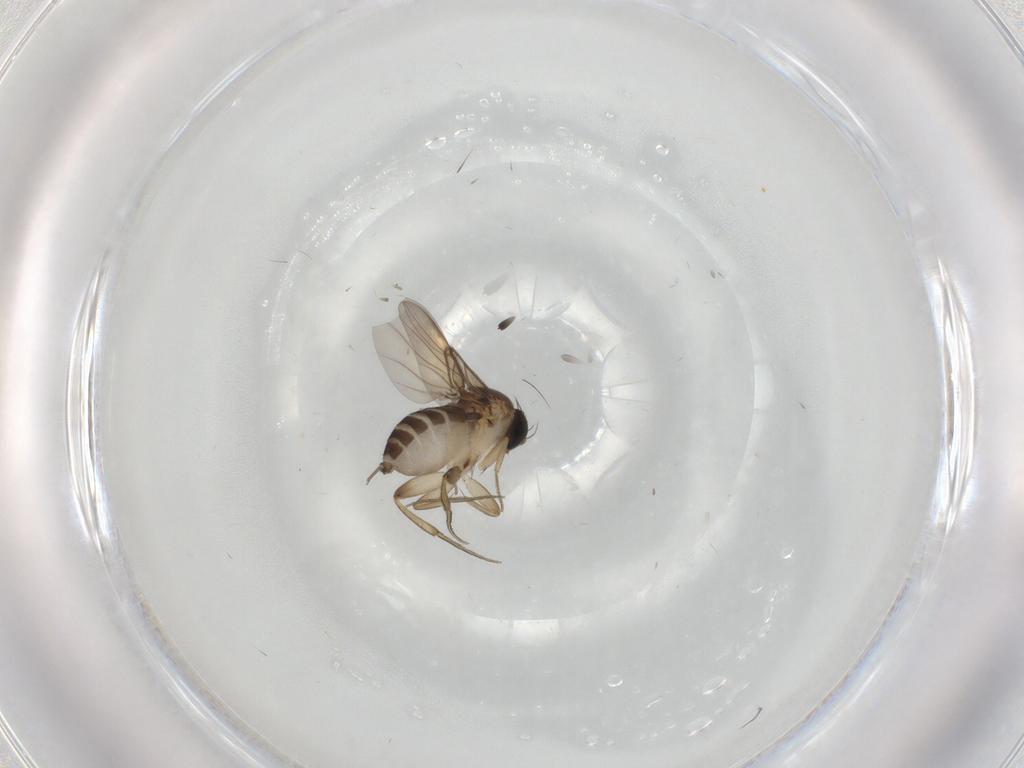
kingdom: Animalia
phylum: Arthropoda
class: Insecta
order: Diptera
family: Phoridae
